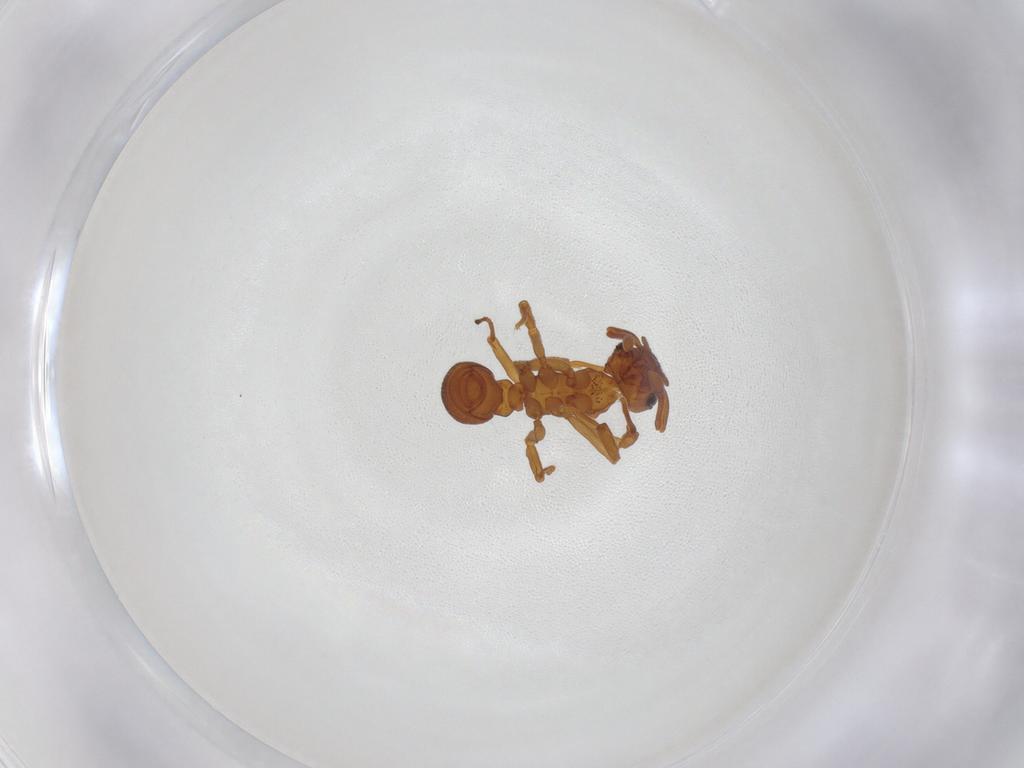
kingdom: Animalia
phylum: Arthropoda
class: Insecta
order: Hymenoptera
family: Formicidae
